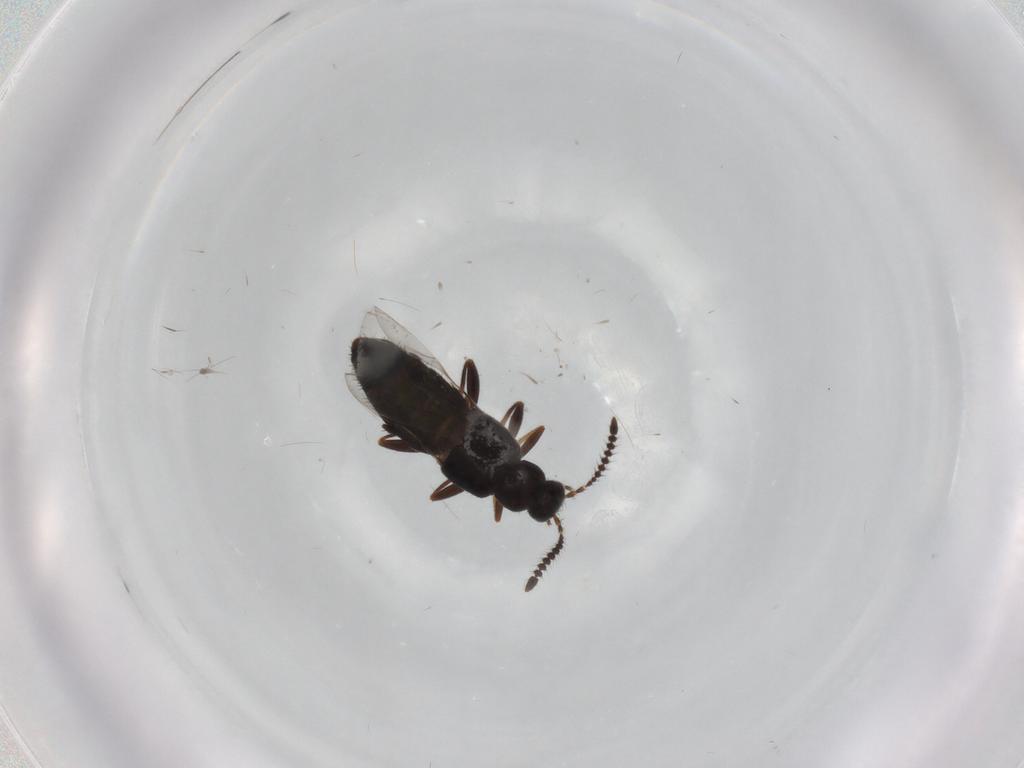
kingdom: Animalia
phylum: Arthropoda
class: Insecta
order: Coleoptera
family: Staphylinidae
